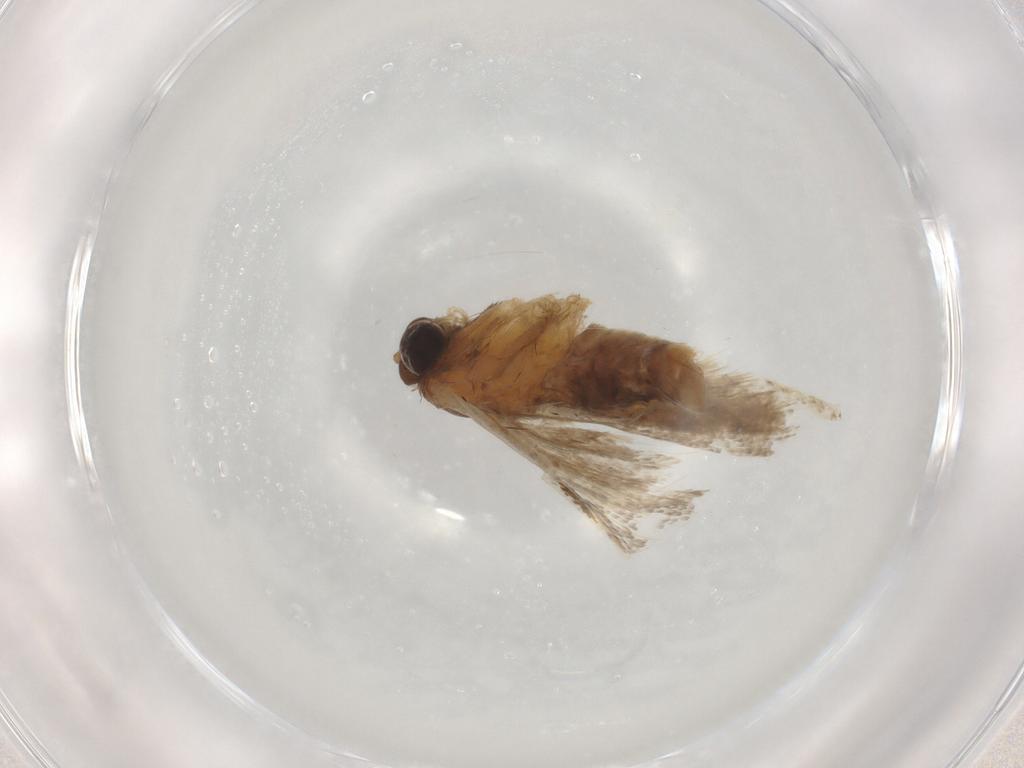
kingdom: Animalia
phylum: Arthropoda
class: Insecta
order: Lepidoptera
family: Tortricidae
